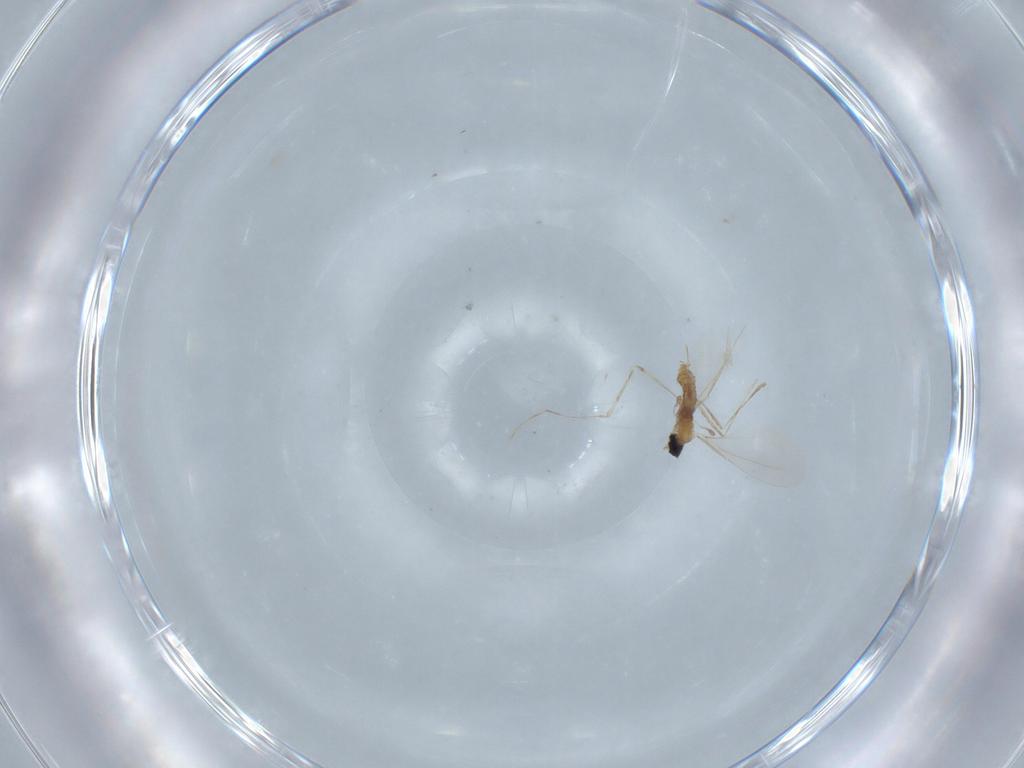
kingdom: Animalia
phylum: Arthropoda
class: Insecta
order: Diptera
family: Cecidomyiidae
